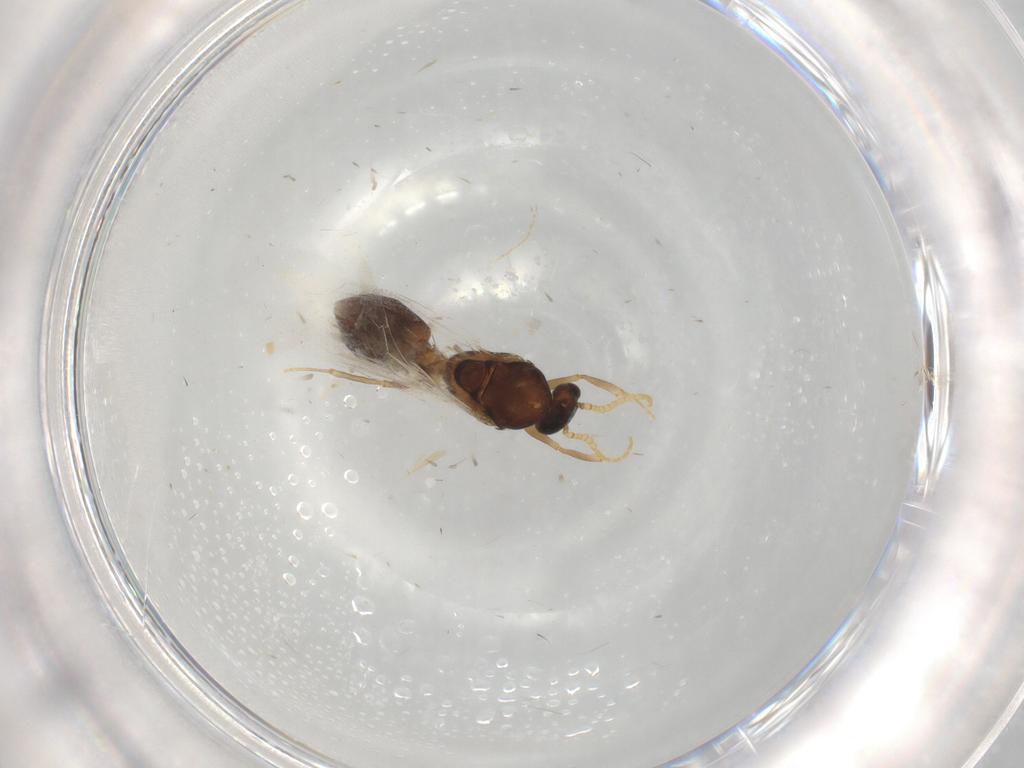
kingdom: Animalia
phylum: Arthropoda
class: Insecta
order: Hymenoptera
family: Formicidae
